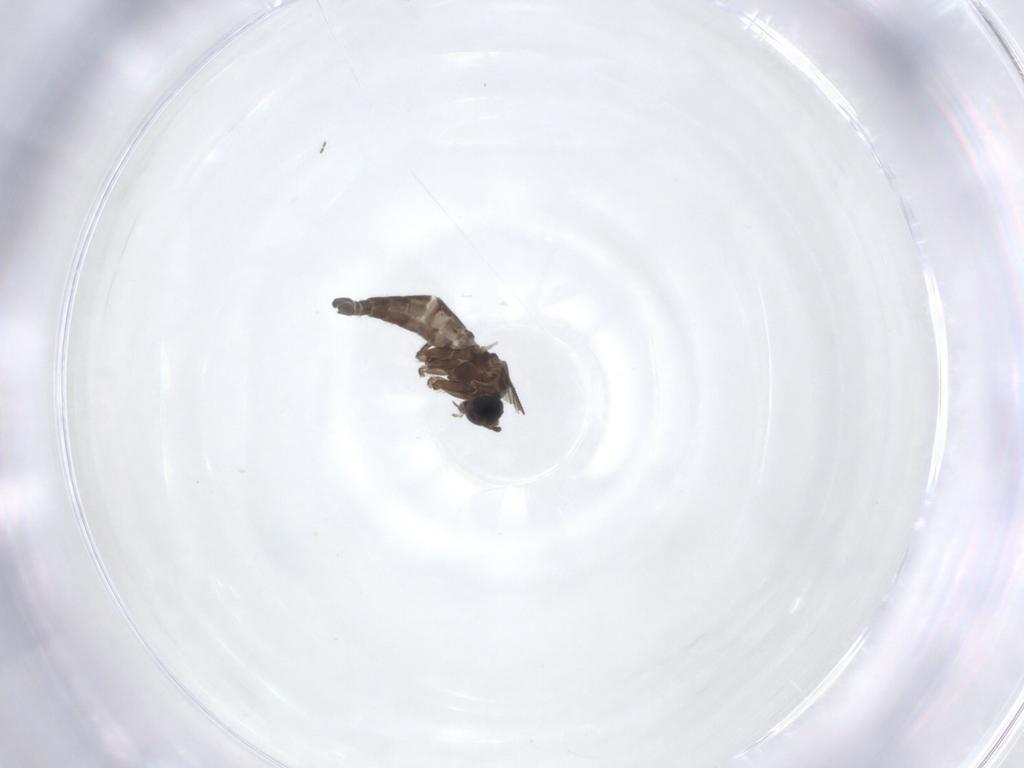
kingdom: Animalia
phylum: Arthropoda
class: Insecta
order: Diptera
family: Sciaridae
